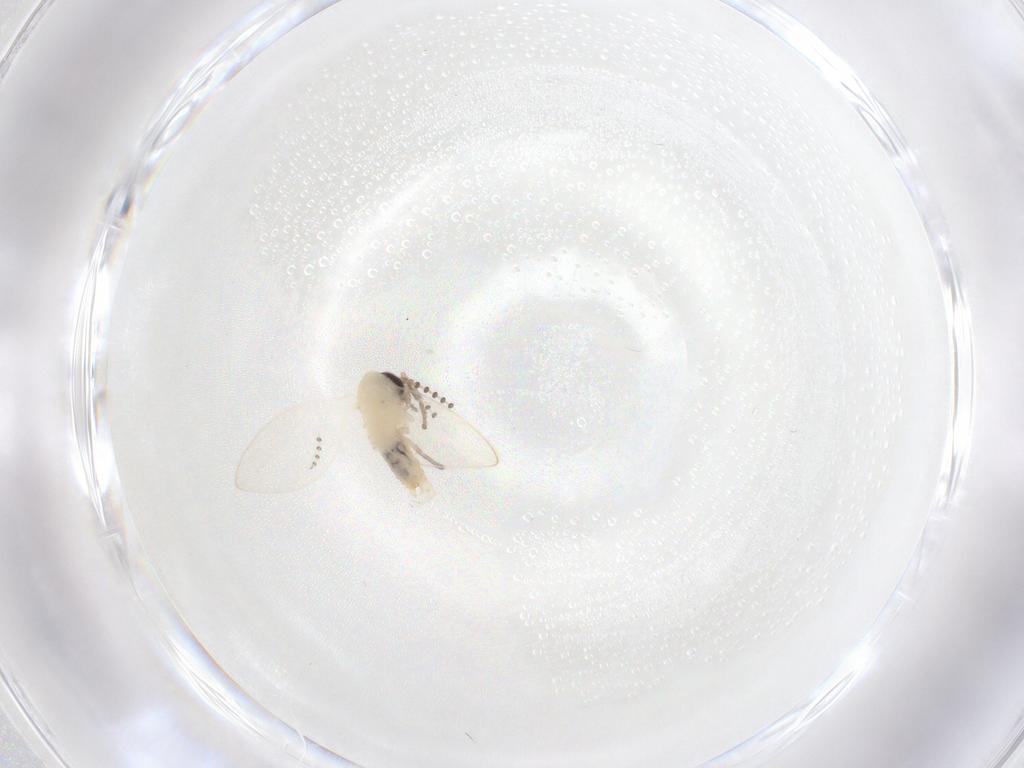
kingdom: Animalia
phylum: Arthropoda
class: Insecta
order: Diptera
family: Psychodidae
